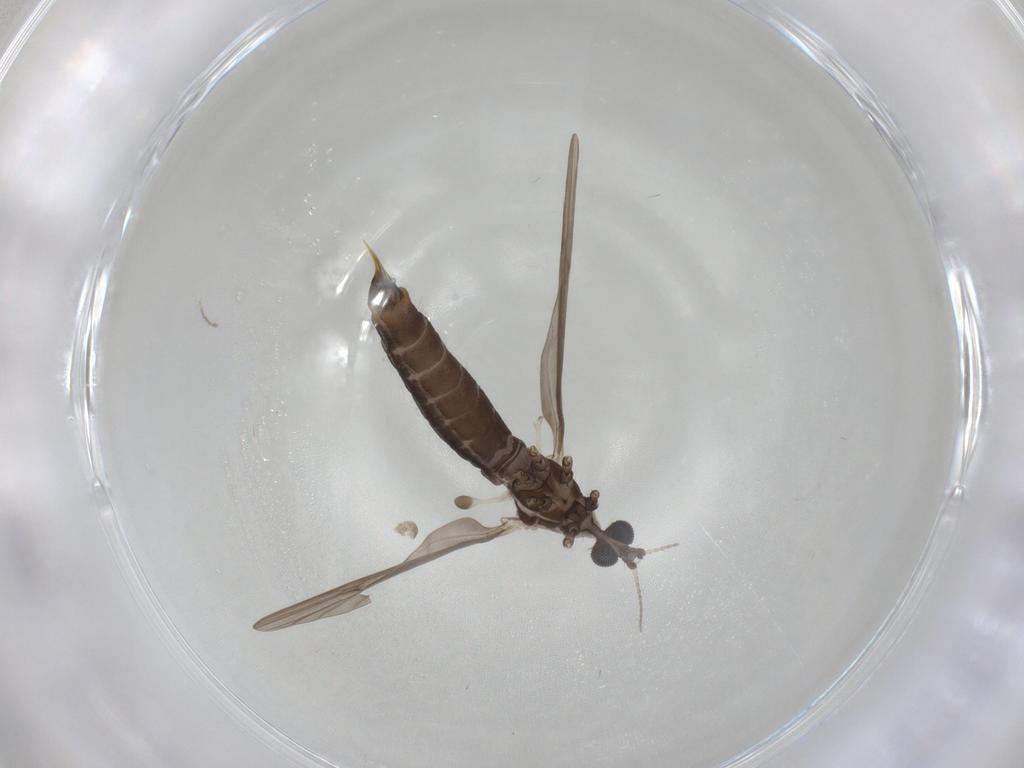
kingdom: Animalia
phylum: Arthropoda
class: Insecta
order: Diptera
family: Limoniidae
